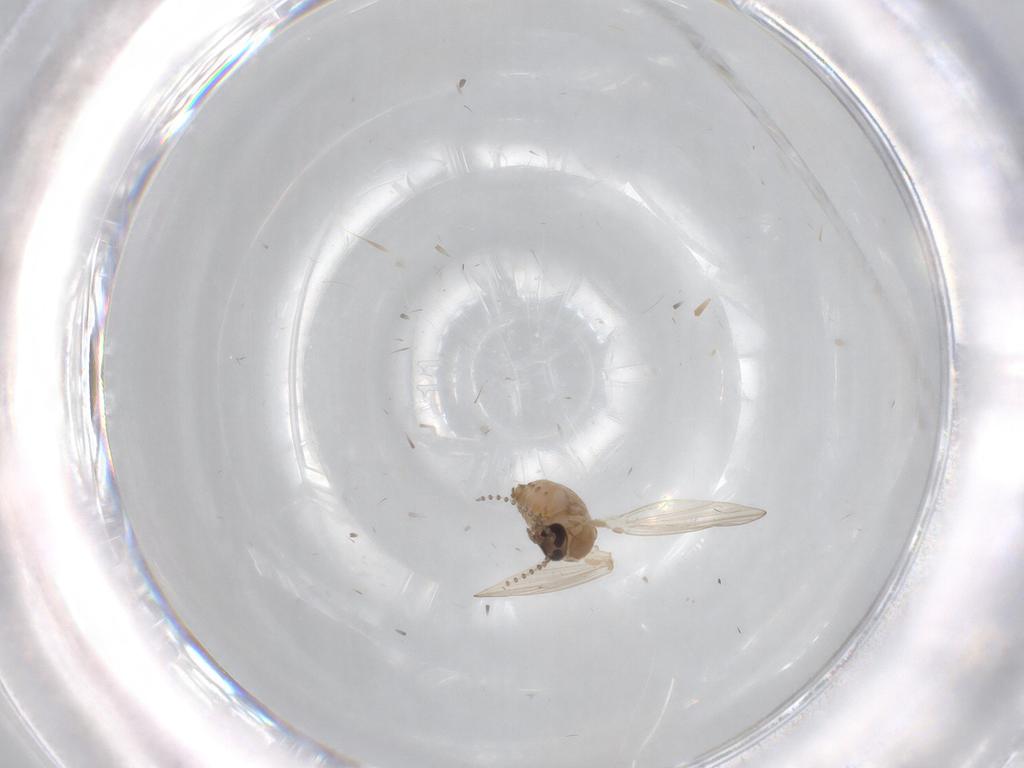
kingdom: Animalia
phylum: Arthropoda
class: Insecta
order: Diptera
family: Psychodidae
